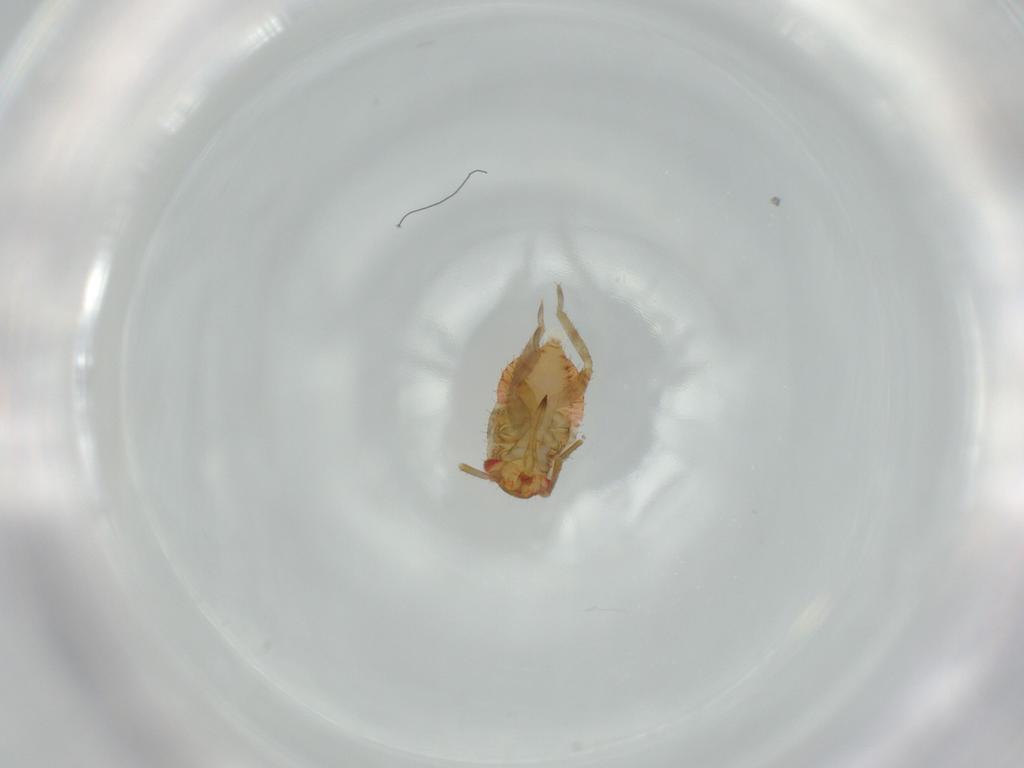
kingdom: Animalia
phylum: Arthropoda
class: Insecta
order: Hemiptera
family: Miridae
